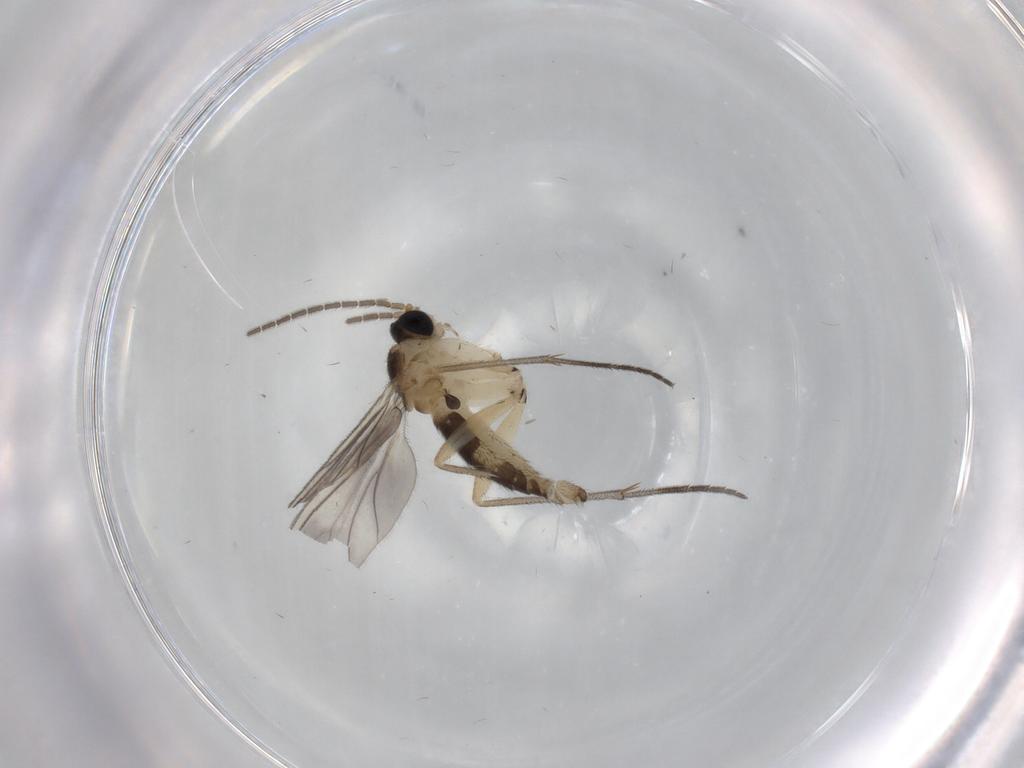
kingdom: Animalia
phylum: Arthropoda
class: Insecta
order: Diptera
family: Sciaridae
